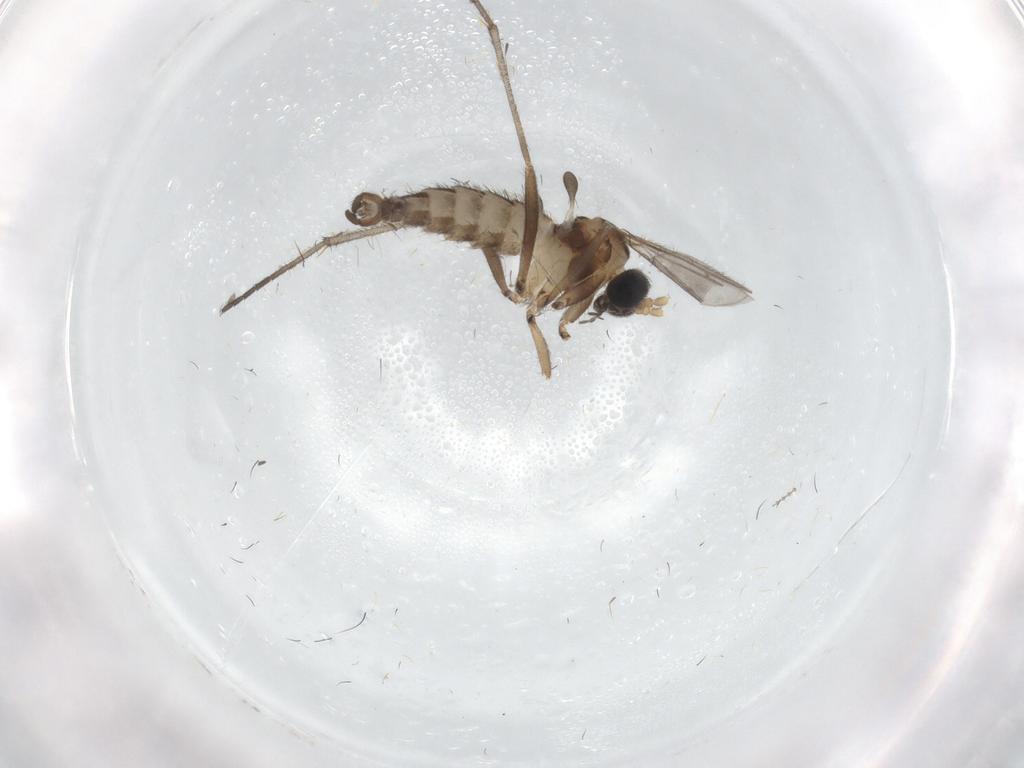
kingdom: Animalia
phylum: Arthropoda
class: Insecta
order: Diptera
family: Sciaridae
